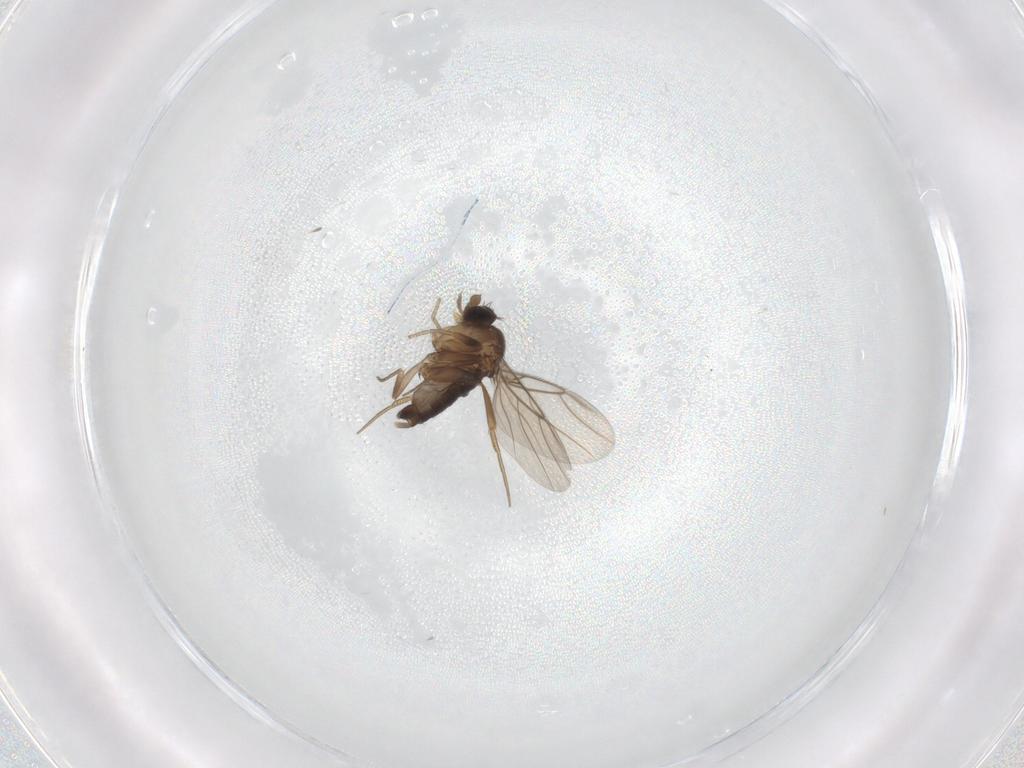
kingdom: Animalia
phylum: Arthropoda
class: Insecta
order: Diptera
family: Phoridae
